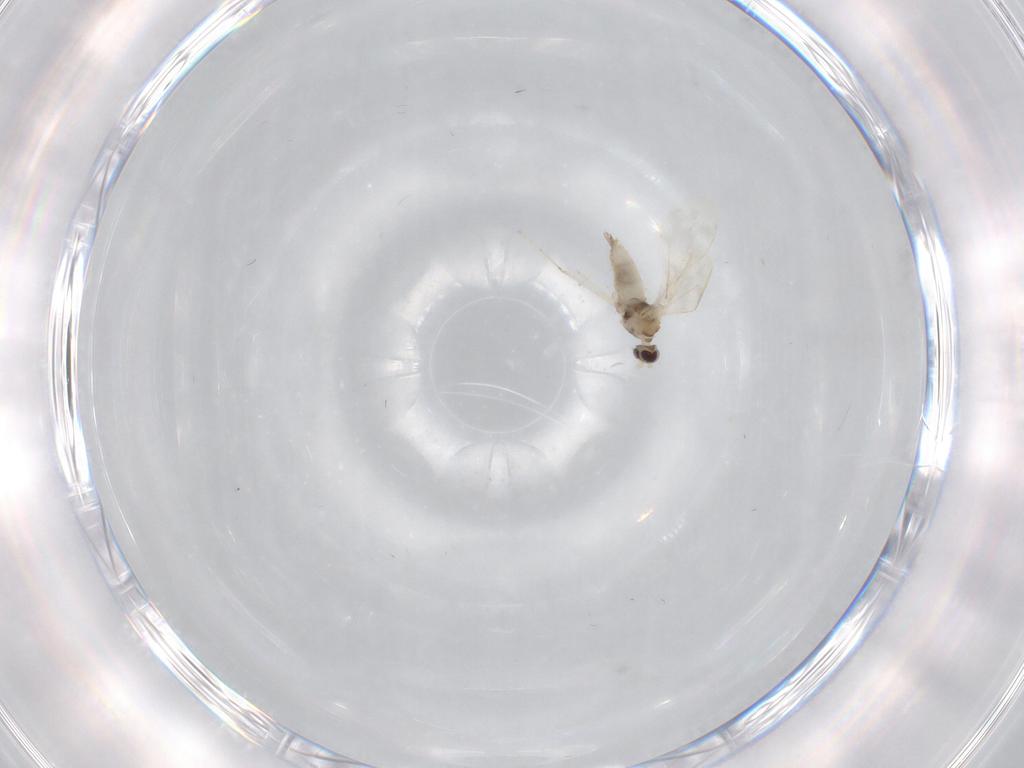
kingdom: Animalia
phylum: Arthropoda
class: Insecta
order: Diptera
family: Cecidomyiidae
